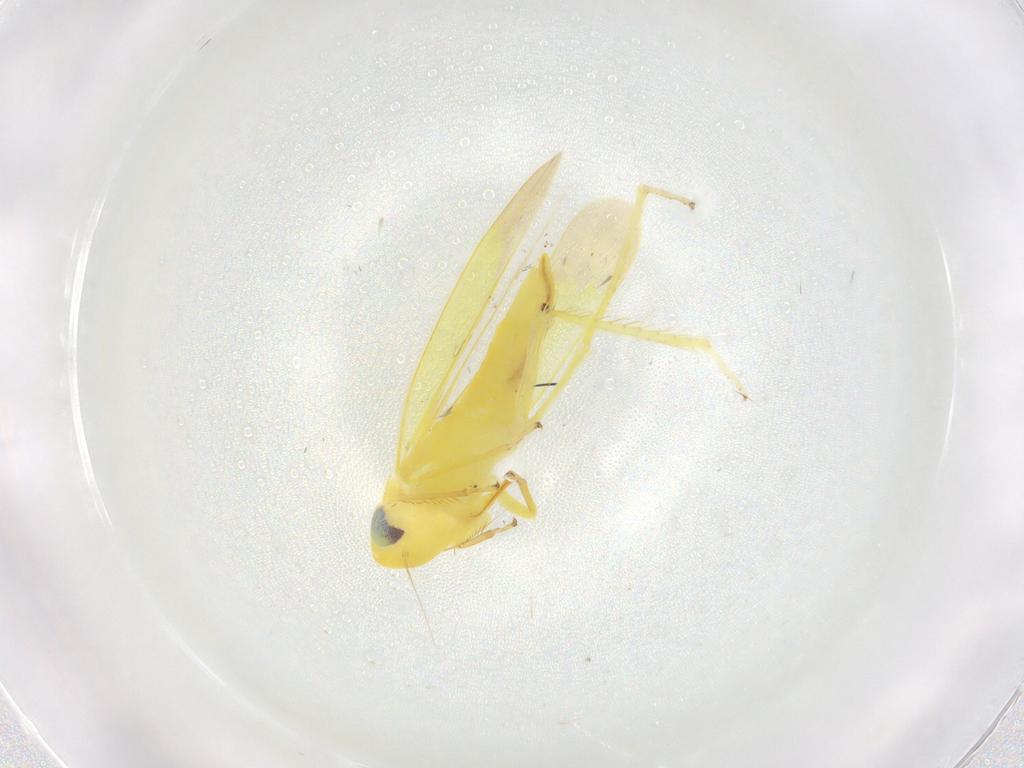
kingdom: Animalia
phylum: Arthropoda
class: Insecta
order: Hemiptera
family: Cicadellidae
